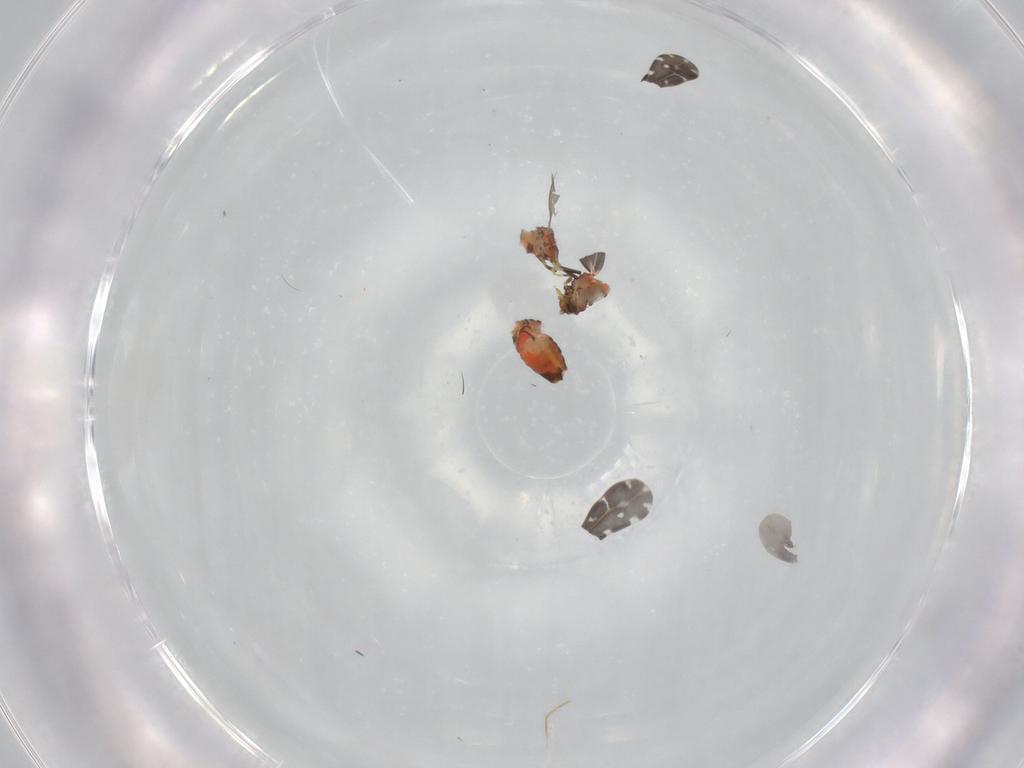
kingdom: Animalia
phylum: Arthropoda
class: Insecta
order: Hemiptera
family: Aleyrodidae
